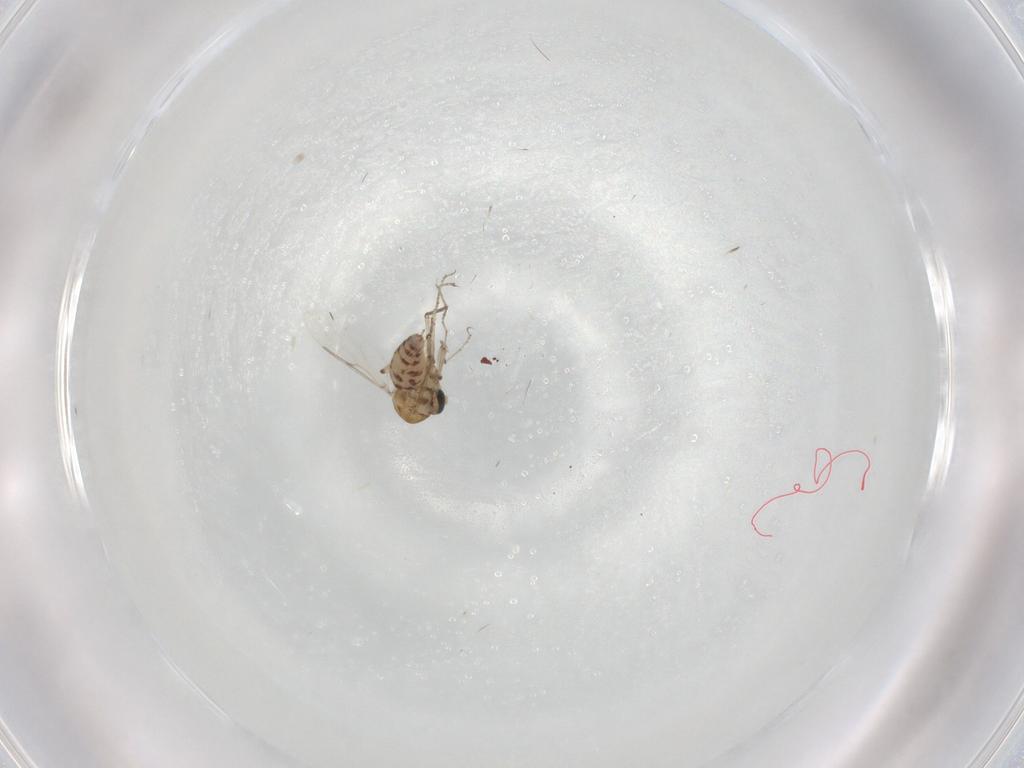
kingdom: Animalia
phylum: Arthropoda
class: Insecta
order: Diptera
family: Ceratopogonidae
